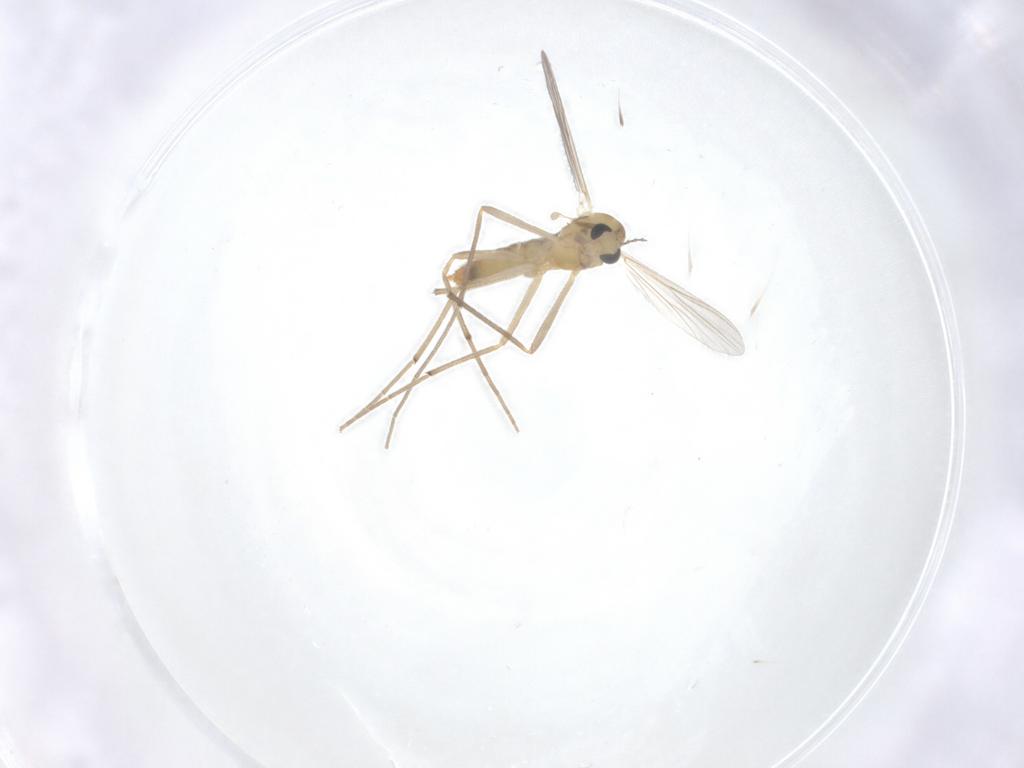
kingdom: Animalia
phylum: Arthropoda
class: Insecta
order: Diptera
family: Chironomidae
